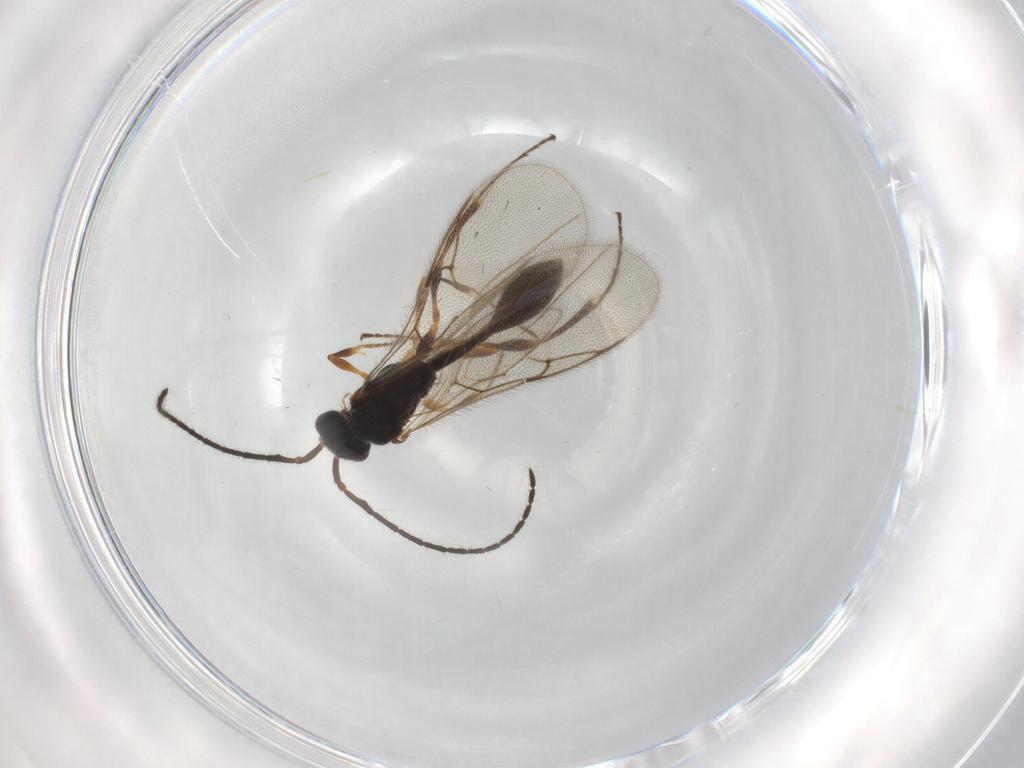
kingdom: Animalia
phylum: Arthropoda
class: Insecta
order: Hymenoptera
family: Diapriidae
